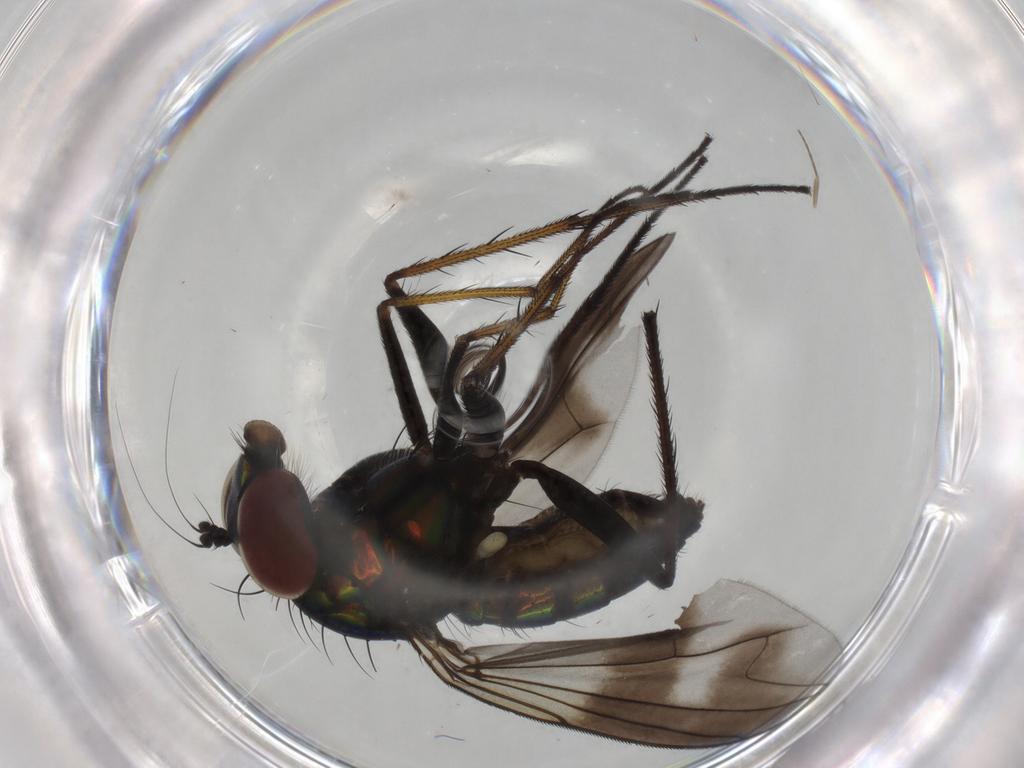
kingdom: Animalia
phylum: Arthropoda
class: Insecta
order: Diptera
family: Dolichopodidae
